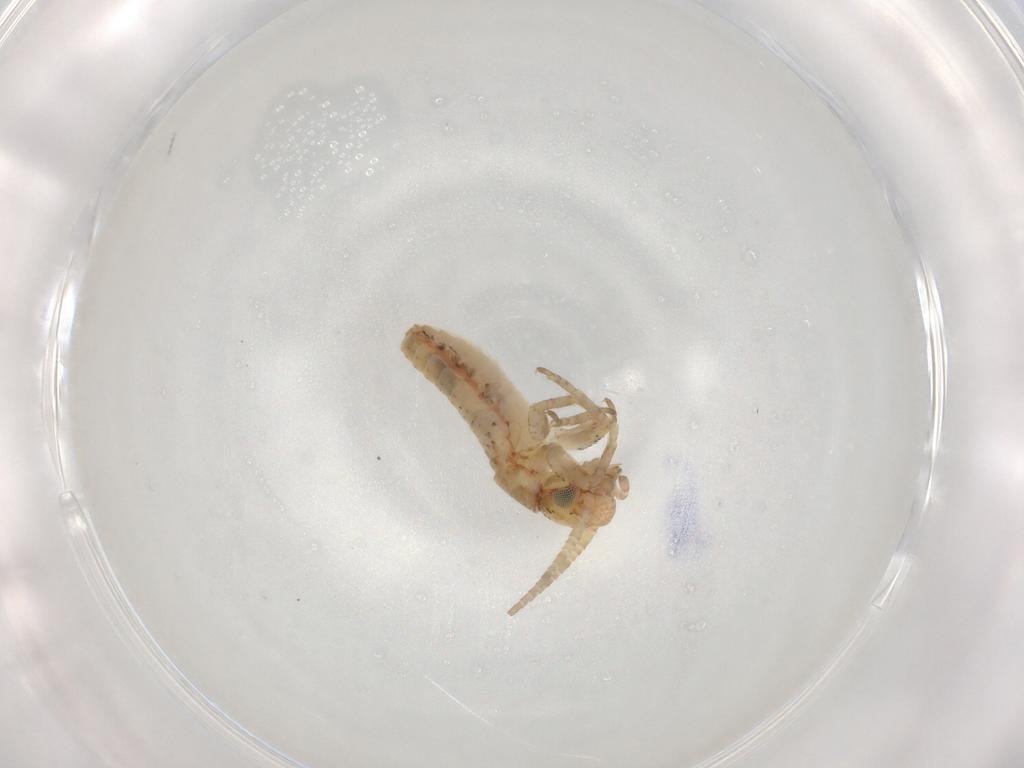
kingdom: Animalia
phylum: Arthropoda
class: Insecta
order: Orthoptera
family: Mogoplistidae
